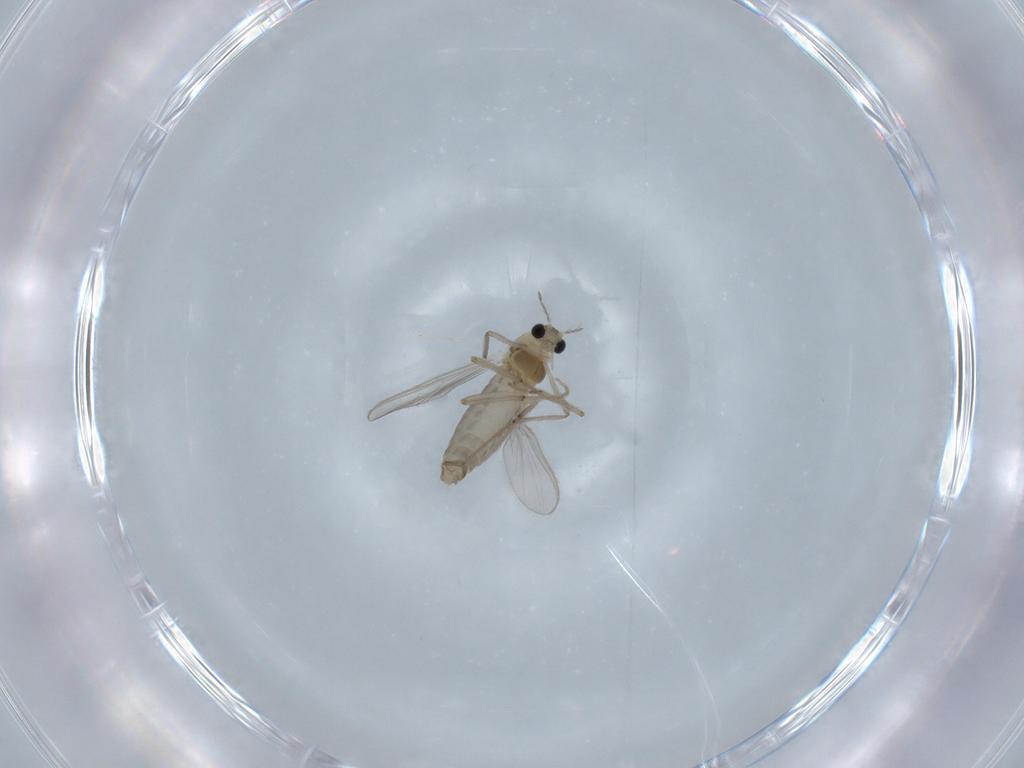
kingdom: Animalia
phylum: Arthropoda
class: Insecta
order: Diptera
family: Chironomidae
